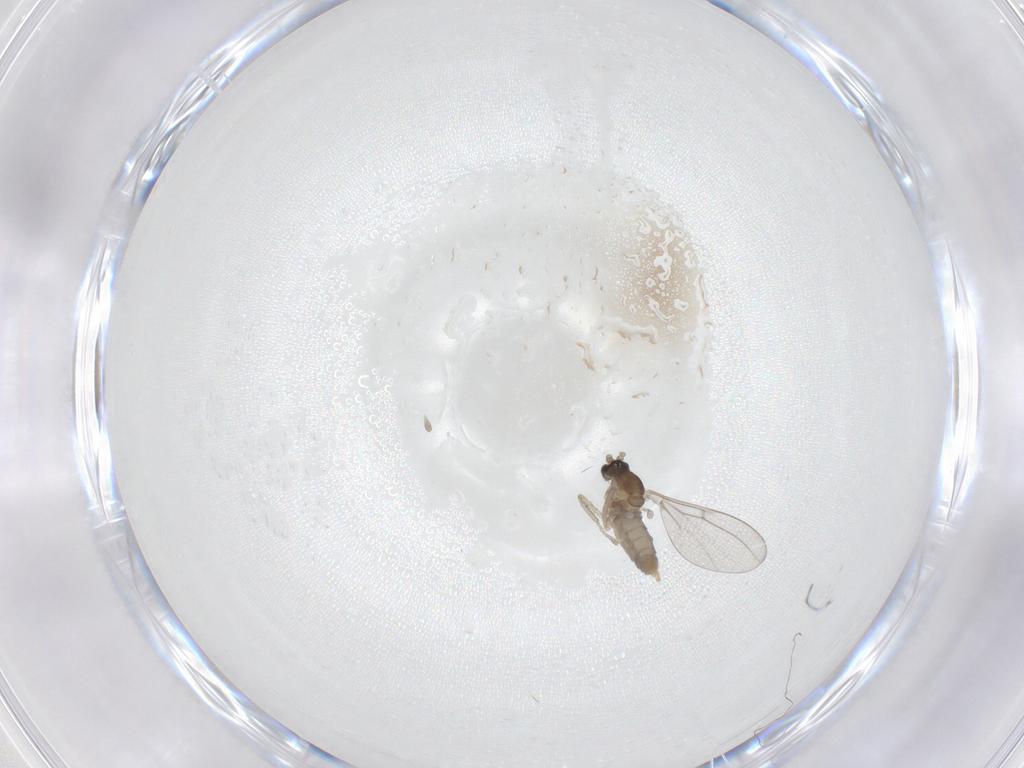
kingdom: Animalia
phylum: Arthropoda
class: Insecta
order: Diptera
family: Cecidomyiidae
